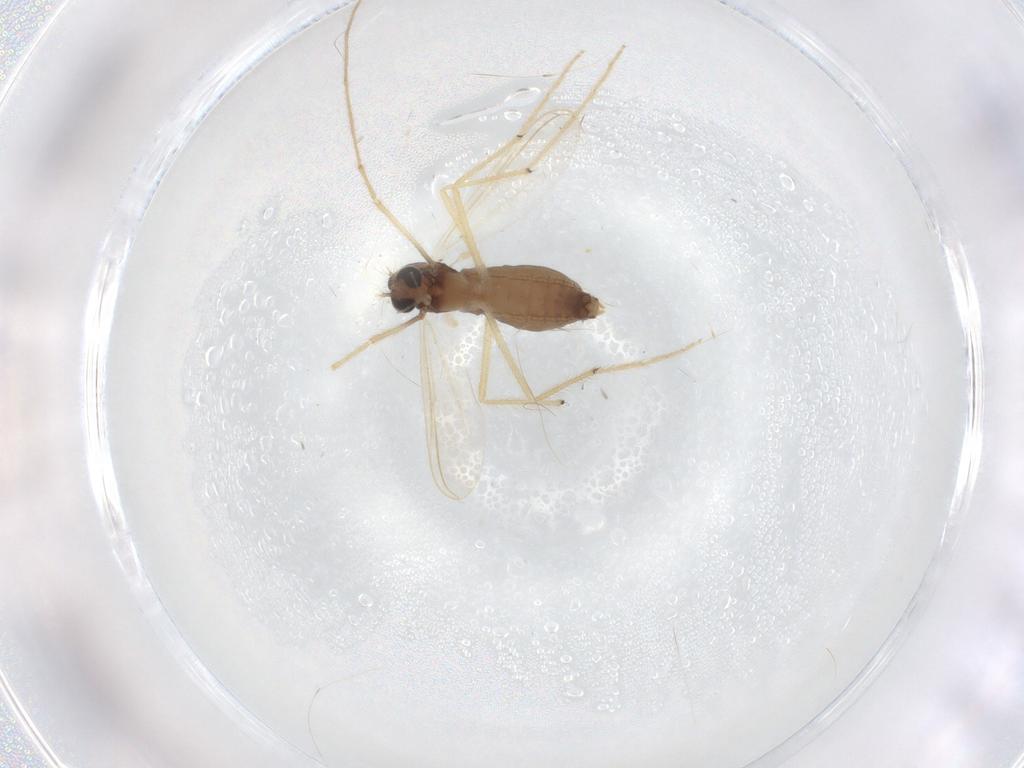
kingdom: Animalia
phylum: Arthropoda
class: Insecta
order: Diptera
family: Chironomidae
